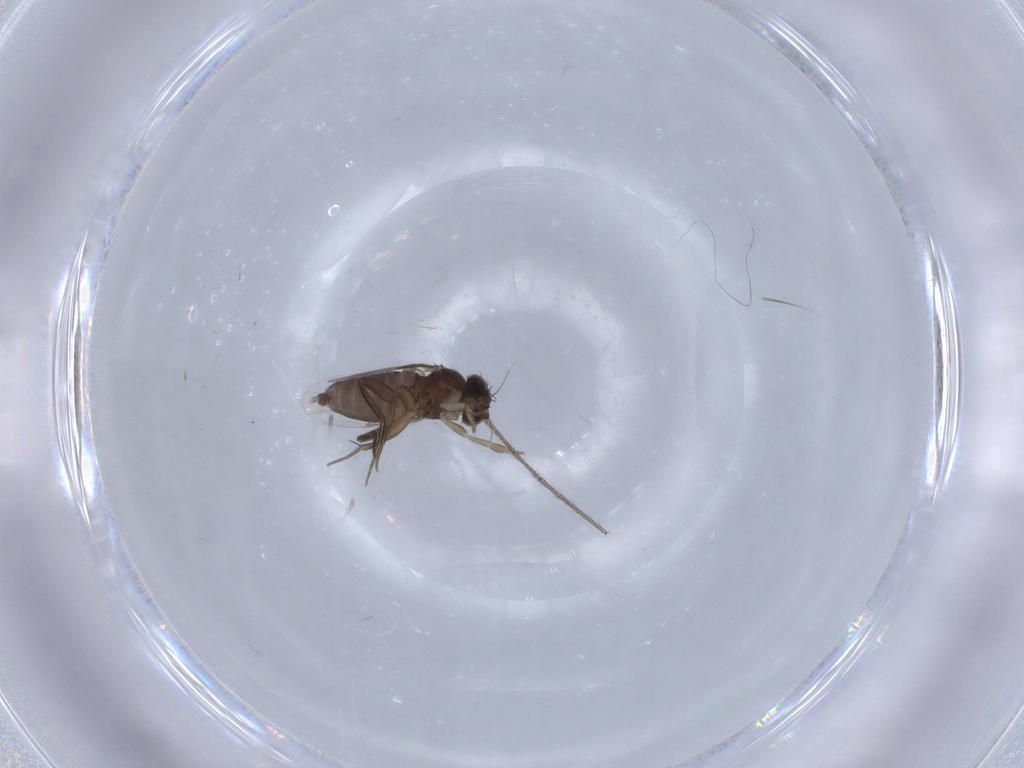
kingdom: Animalia
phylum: Arthropoda
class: Insecta
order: Diptera
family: Phoridae
